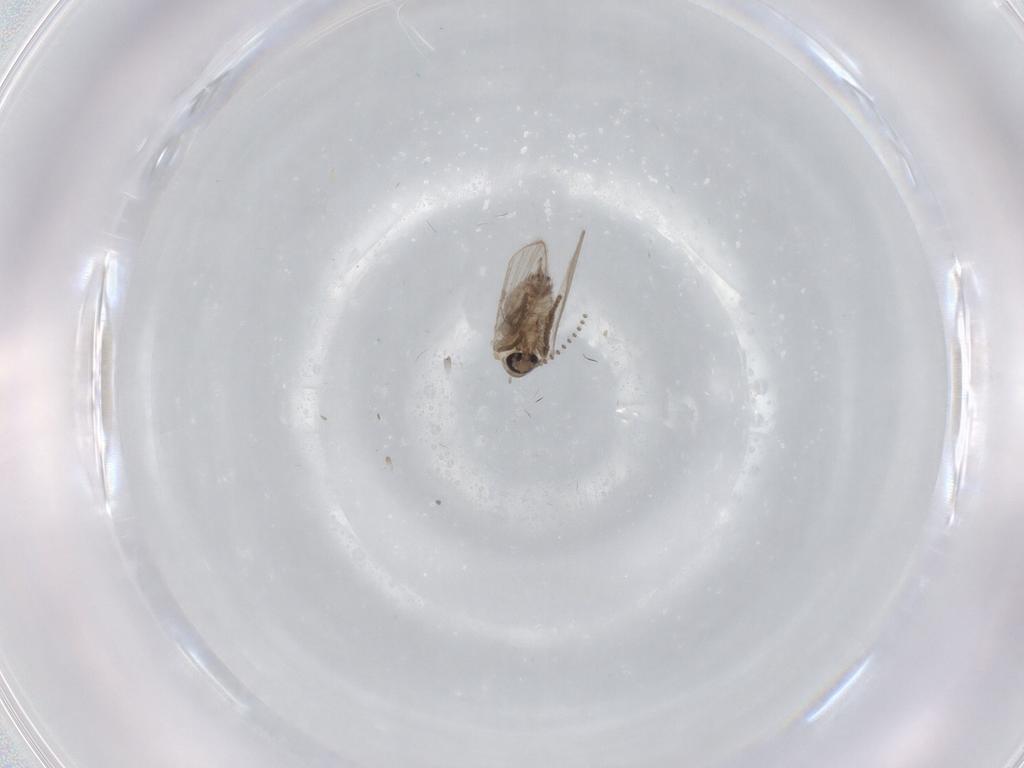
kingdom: Animalia
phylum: Arthropoda
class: Insecta
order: Diptera
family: Psychodidae
